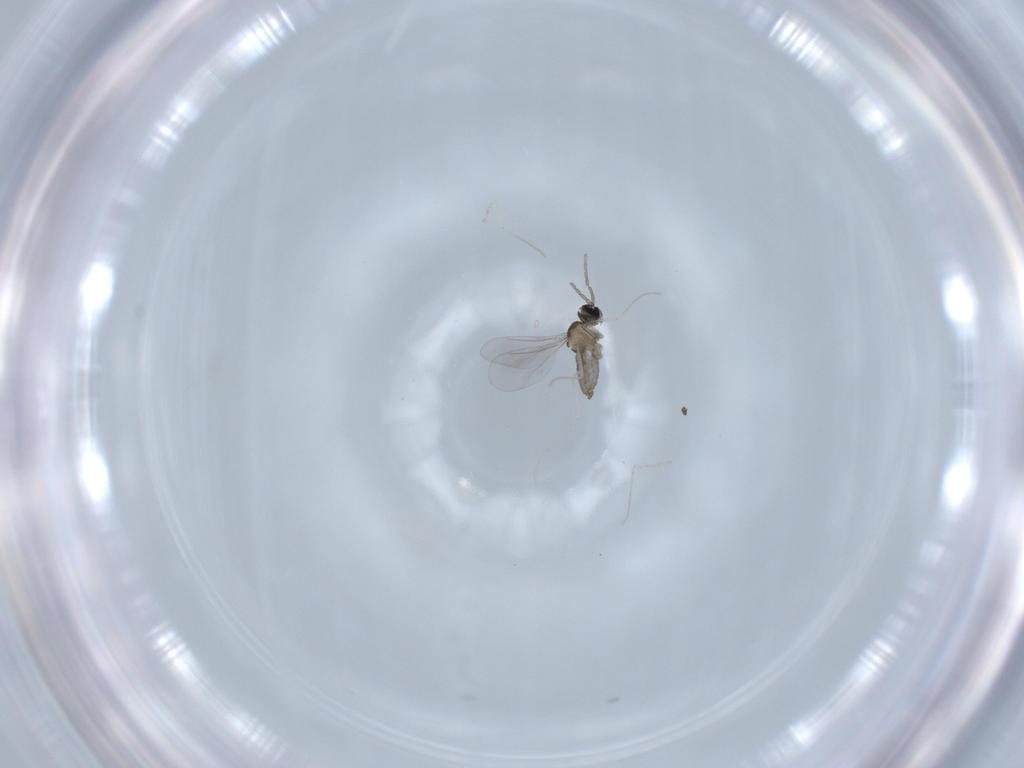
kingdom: Animalia
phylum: Arthropoda
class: Insecta
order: Diptera
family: Cecidomyiidae
